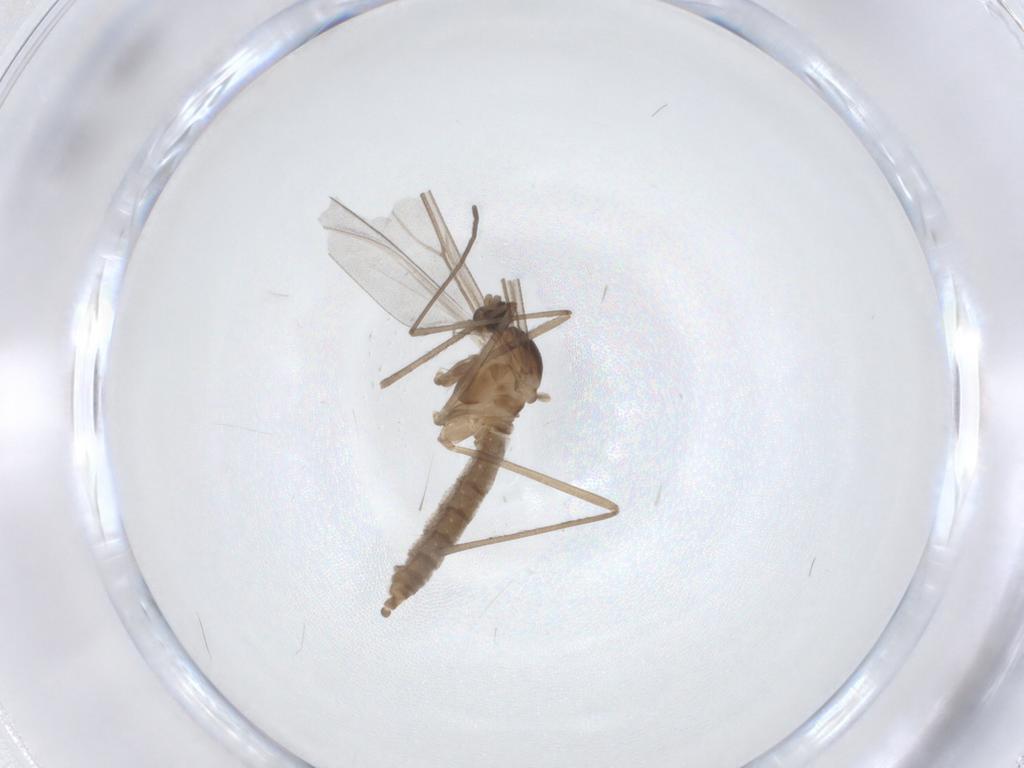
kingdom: Animalia
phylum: Arthropoda
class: Insecta
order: Diptera
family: Cecidomyiidae
